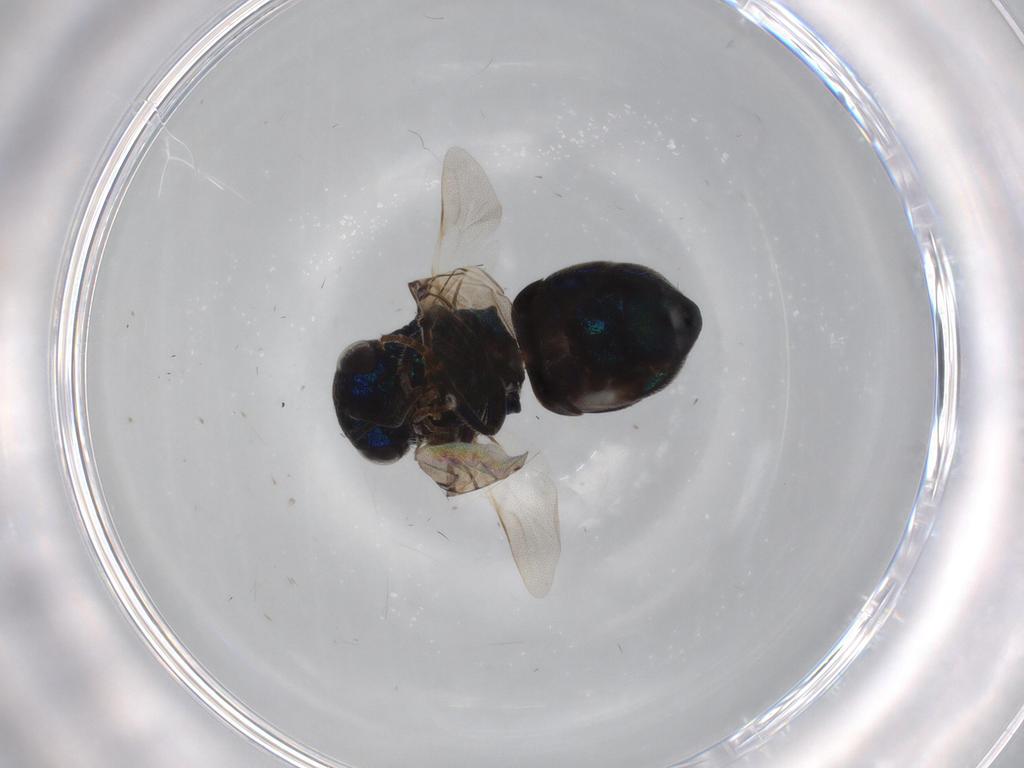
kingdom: Animalia
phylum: Arthropoda
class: Insecta
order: Hymenoptera
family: Chrysididae
